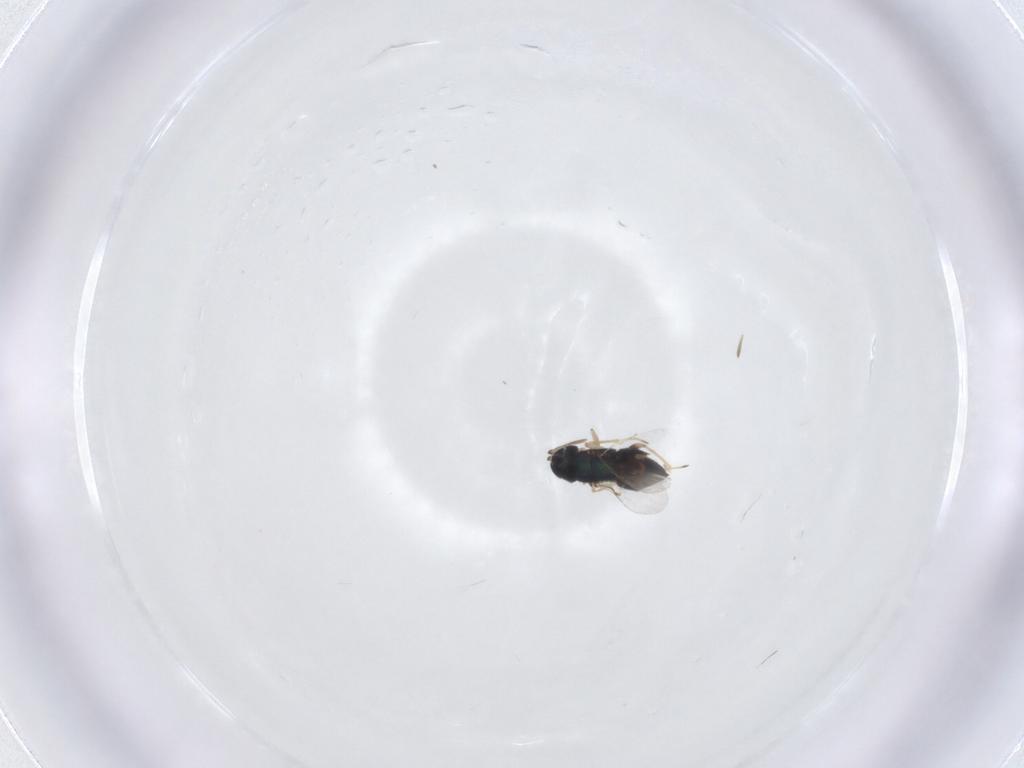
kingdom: Animalia
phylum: Arthropoda
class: Insecta
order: Hymenoptera
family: Encyrtidae
